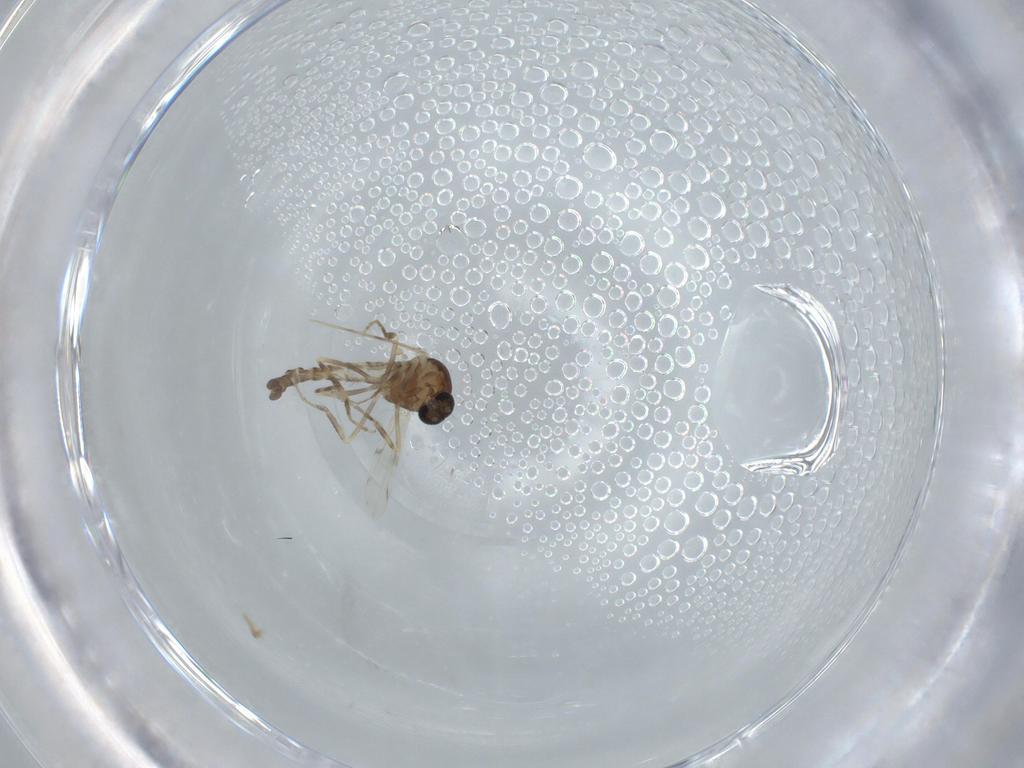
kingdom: Animalia
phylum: Arthropoda
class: Insecta
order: Diptera
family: Ceratopogonidae
